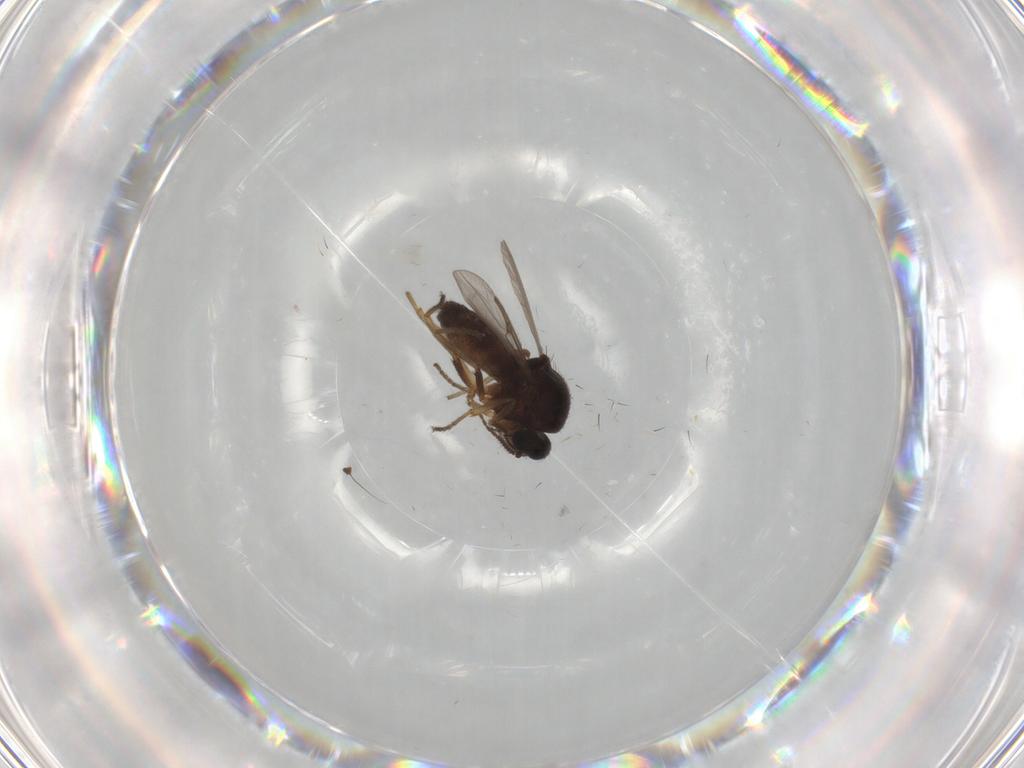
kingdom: Animalia
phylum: Arthropoda
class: Insecta
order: Diptera
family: Ceratopogonidae
